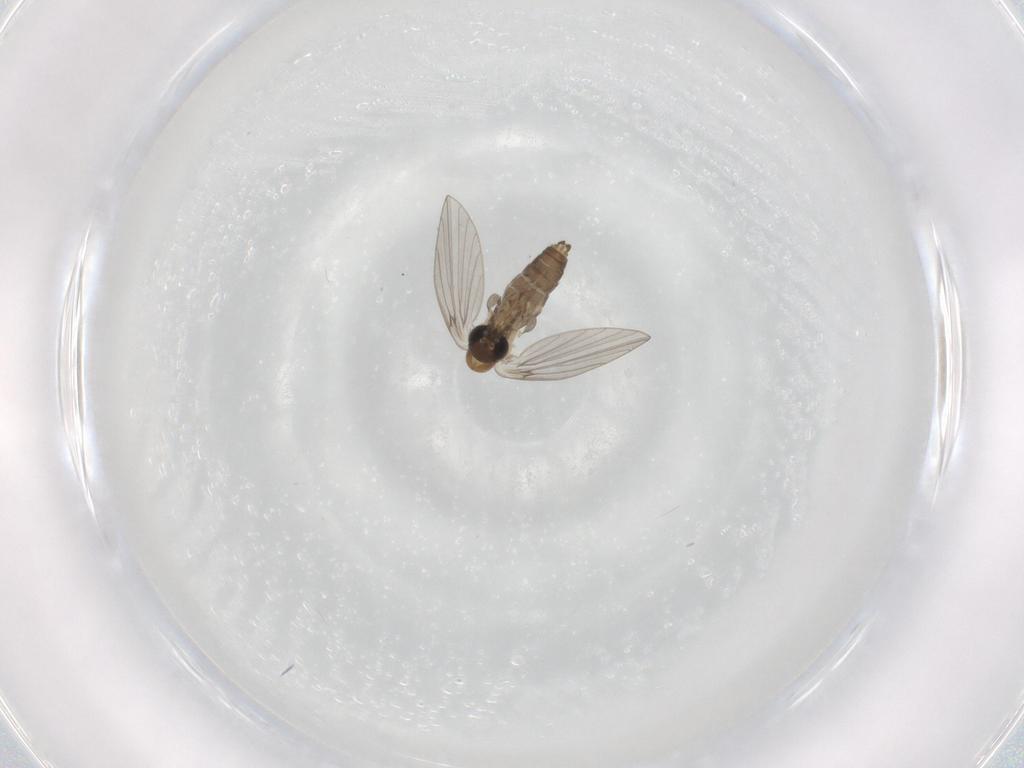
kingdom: Animalia
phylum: Arthropoda
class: Insecta
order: Diptera
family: Psychodidae
